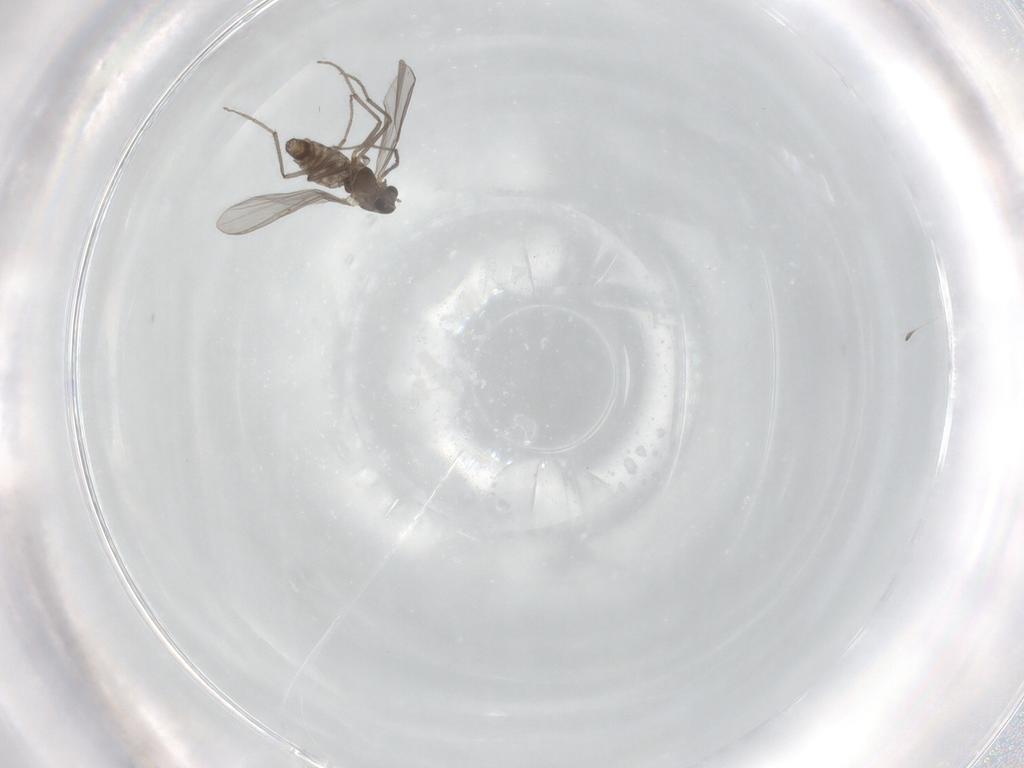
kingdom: Animalia
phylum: Arthropoda
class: Insecta
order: Diptera
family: Chironomidae
